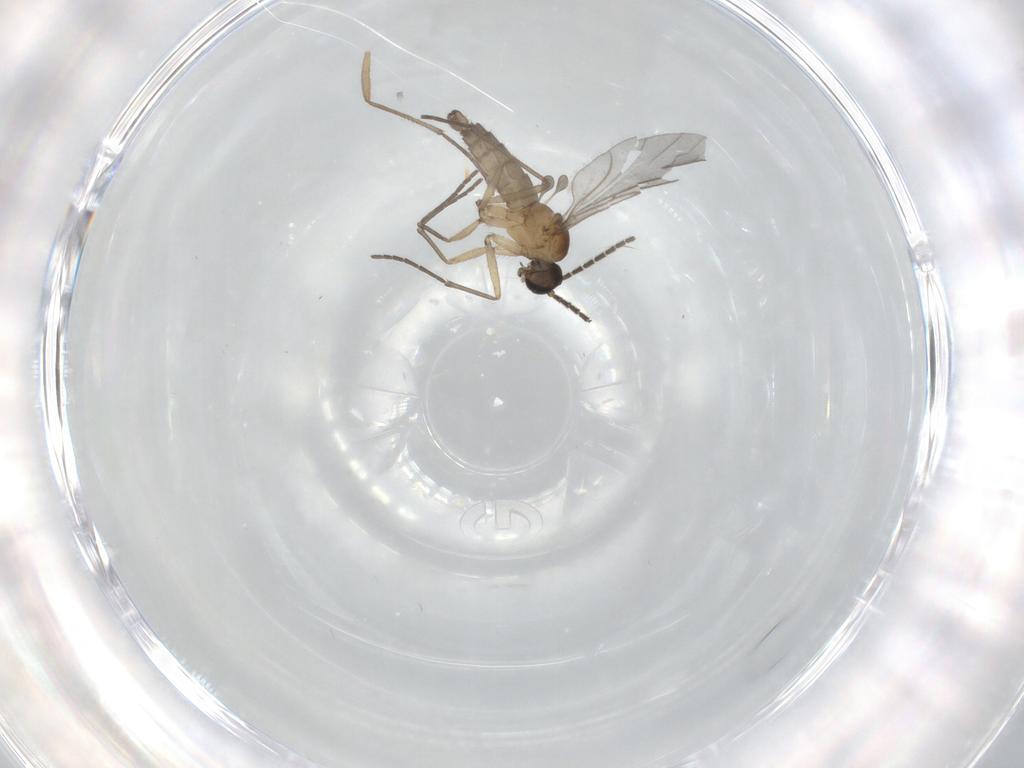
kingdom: Animalia
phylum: Arthropoda
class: Insecta
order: Diptera
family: Sciaridae
